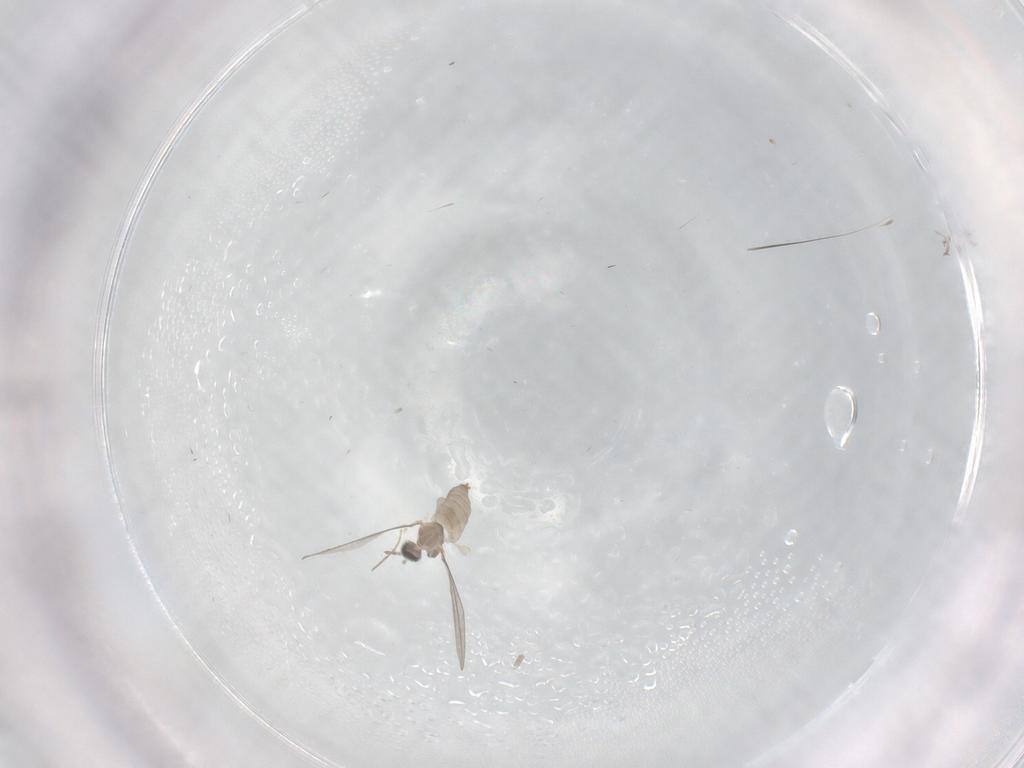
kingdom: Animalia
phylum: Arthropoda
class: Insecta
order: Diptera
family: Cecidomyiidae
